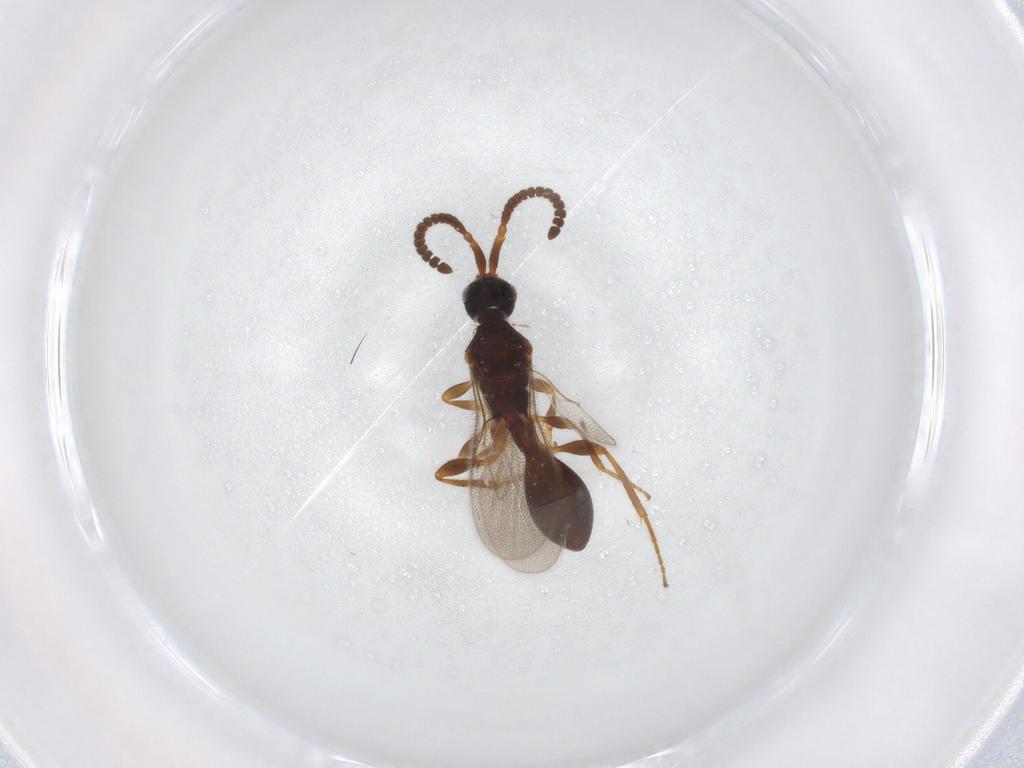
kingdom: Animalia
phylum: Arthropoda
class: Insecta
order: Hymenoptera
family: Diapriidae
